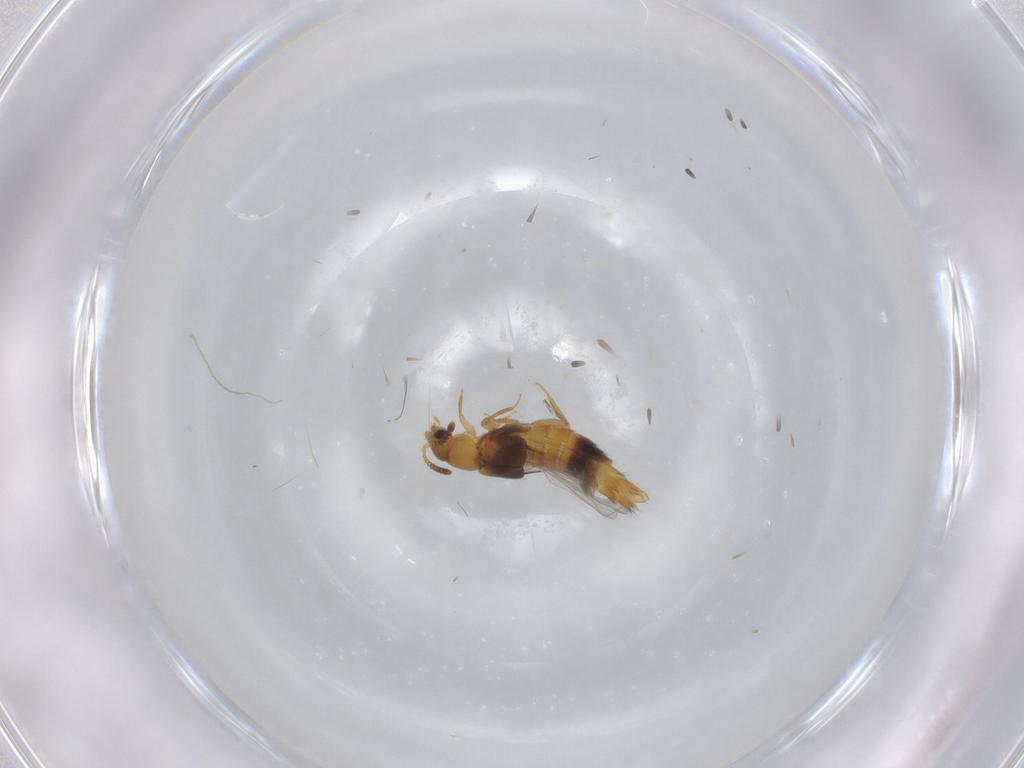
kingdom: Animalia
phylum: Arthropoda
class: Insecta
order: Coleoptera
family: Staphylinidae
